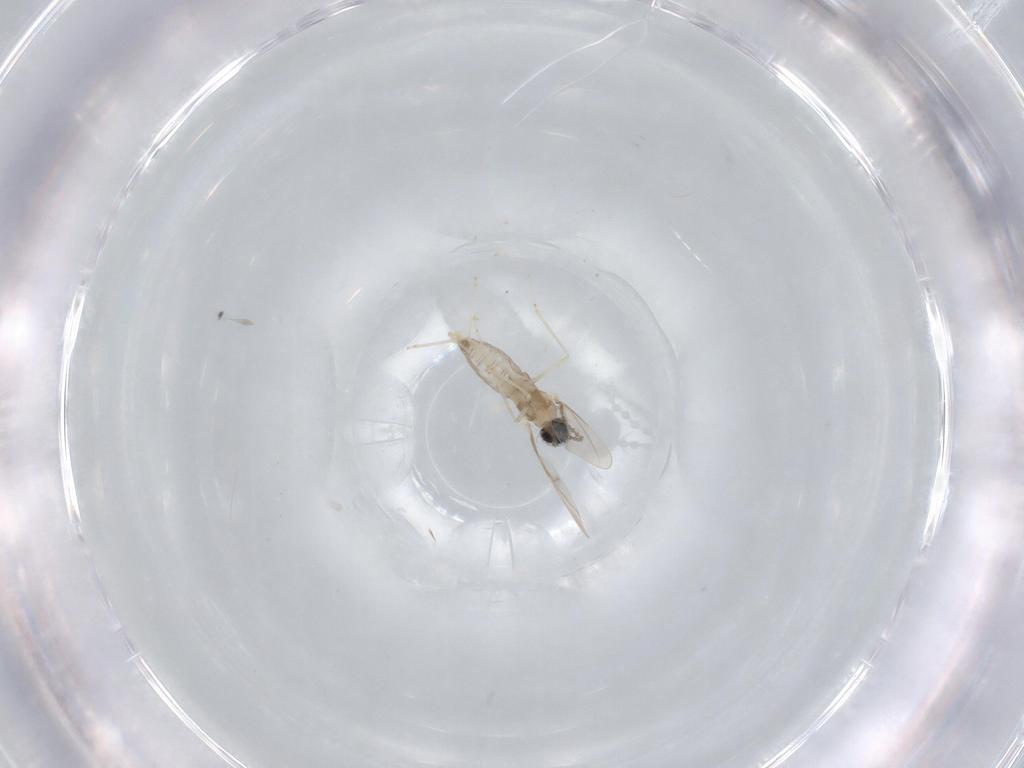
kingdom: Animalia
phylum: Arthropoda
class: Insecta
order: Diptera
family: Cecidomyiidae
